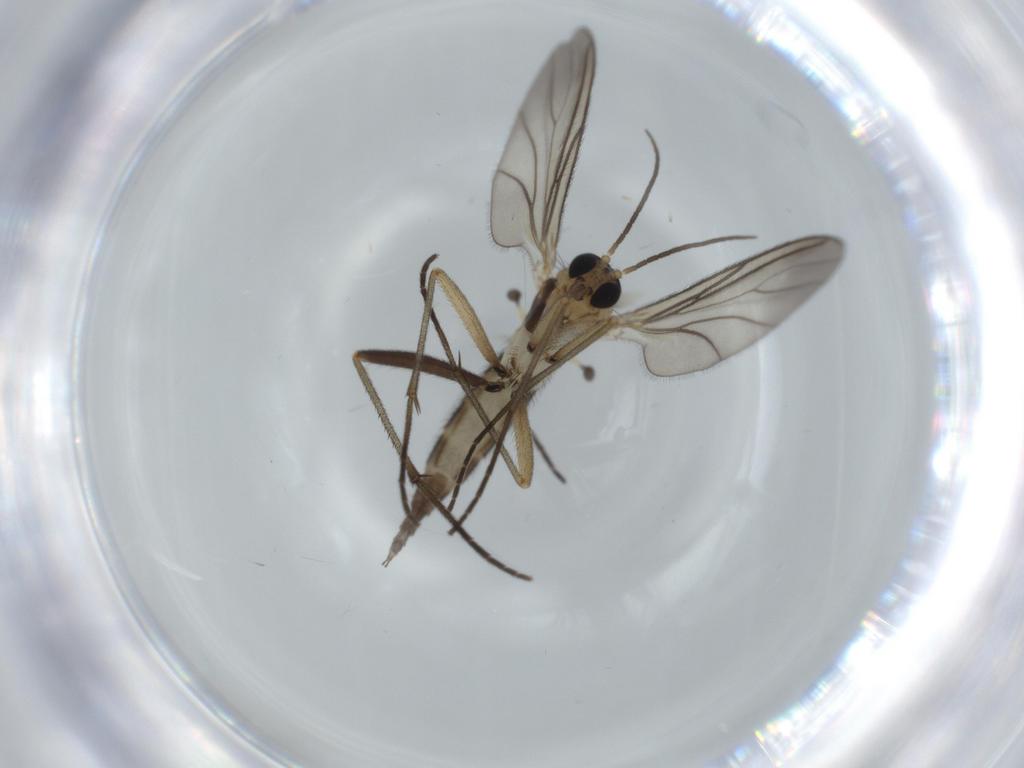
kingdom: Animalia
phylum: Arthropoda
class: Insecta
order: Diptera
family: Sciaridae
